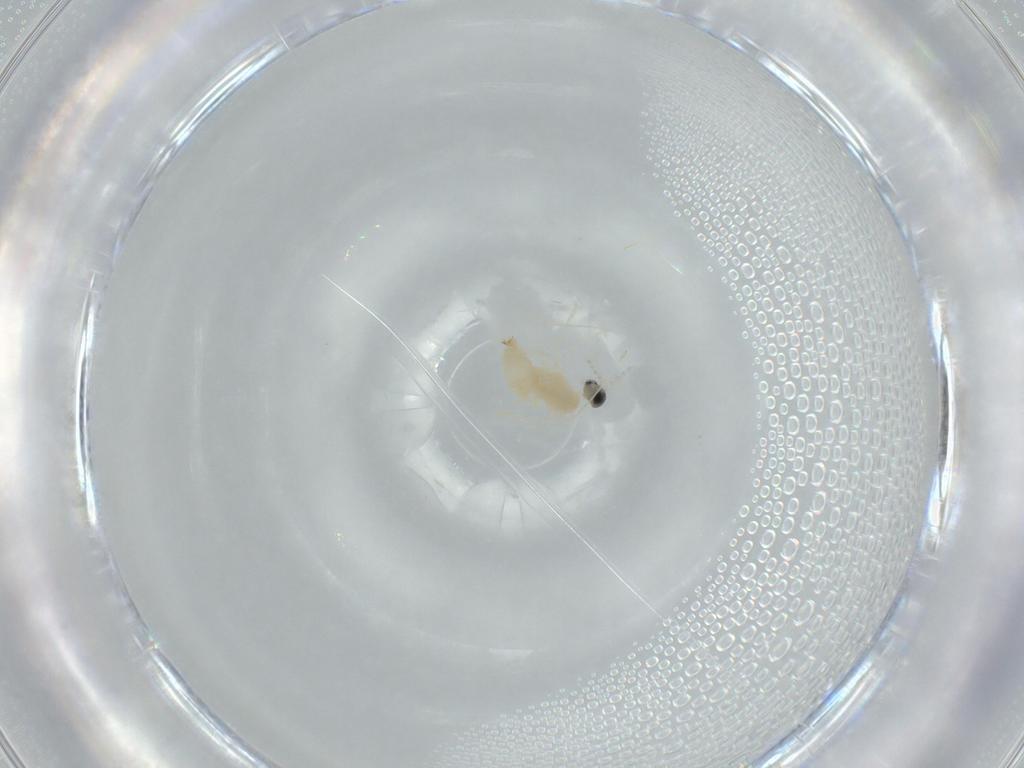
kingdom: Animalia
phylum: Arthropoda
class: Insecta
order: Diptera
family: Cecidomyiidae
